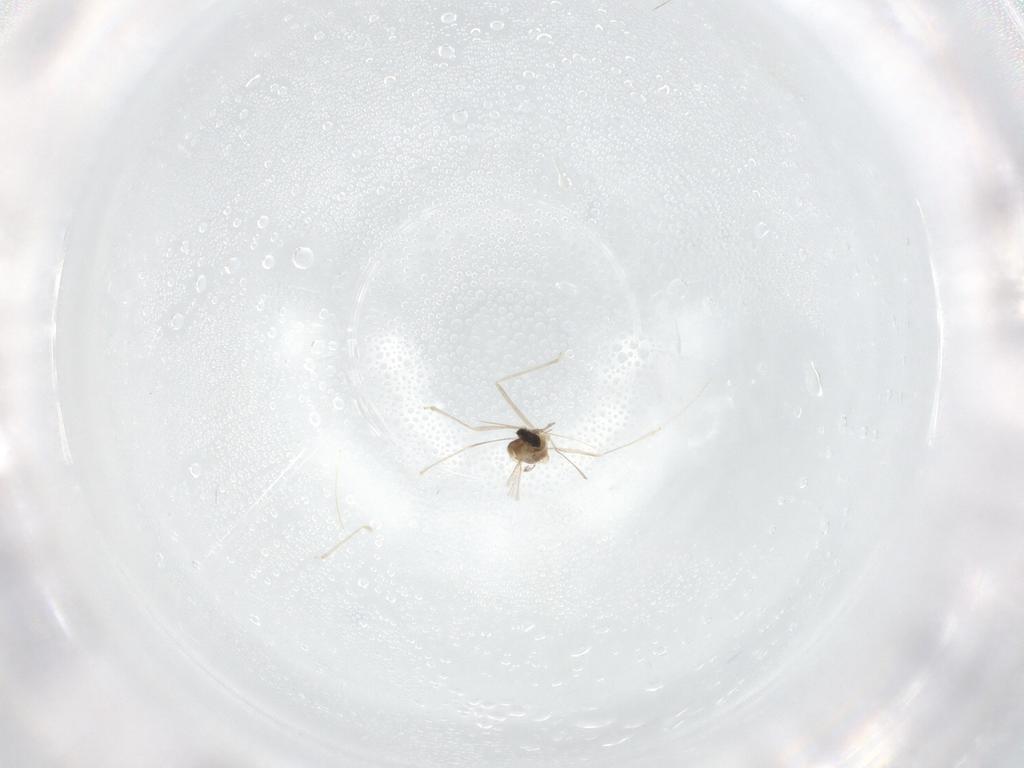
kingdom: Animalia
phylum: Arthropoda
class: Insecta
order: Diptera
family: Cecidomyiidae
